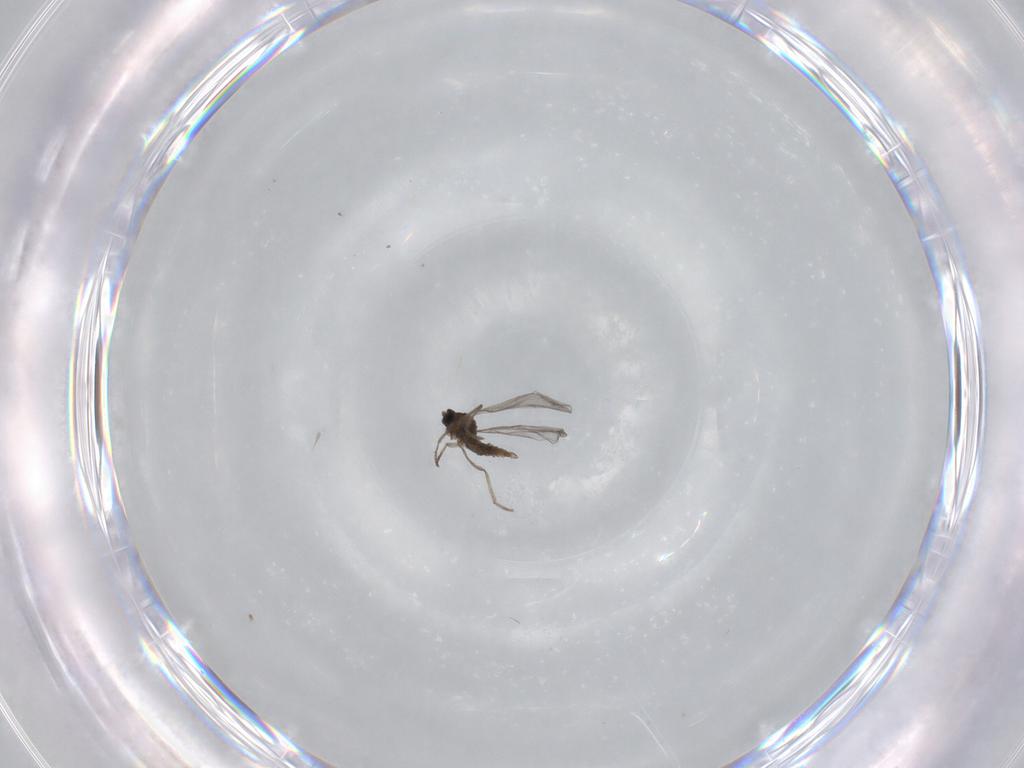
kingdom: Animalia
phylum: Arthropoda
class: Insecta
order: Diptera
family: Cecidomyiidae
